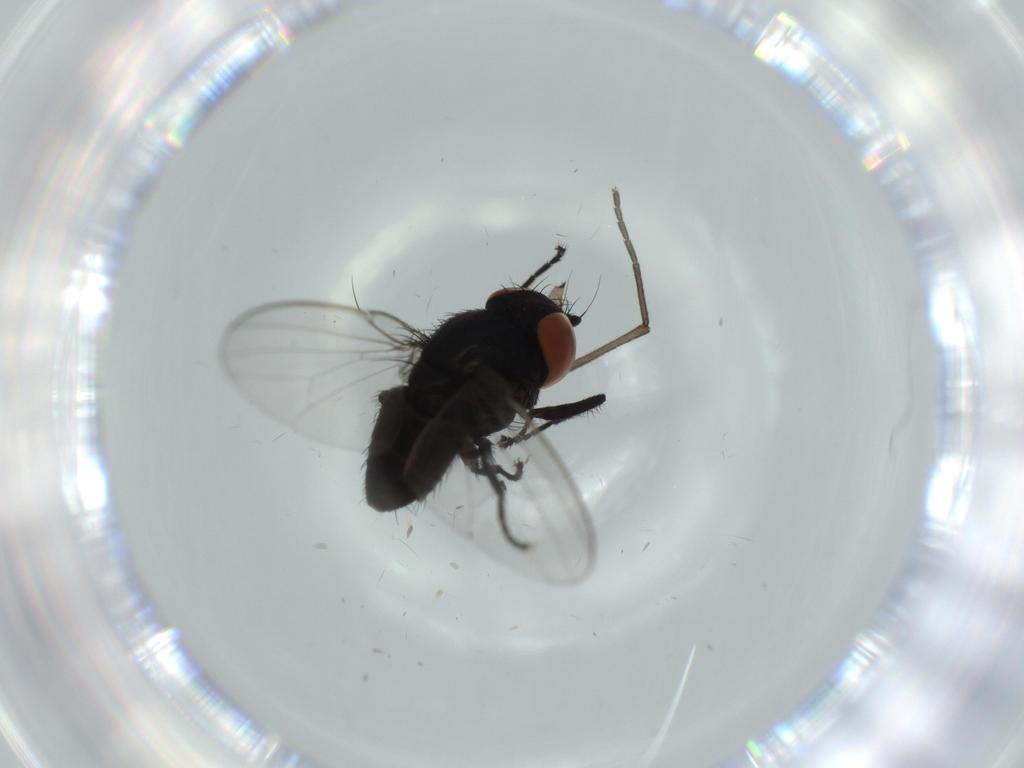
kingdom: Animalia
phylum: Arthropoda
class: Insecta
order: Diptera
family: Milichiidae
